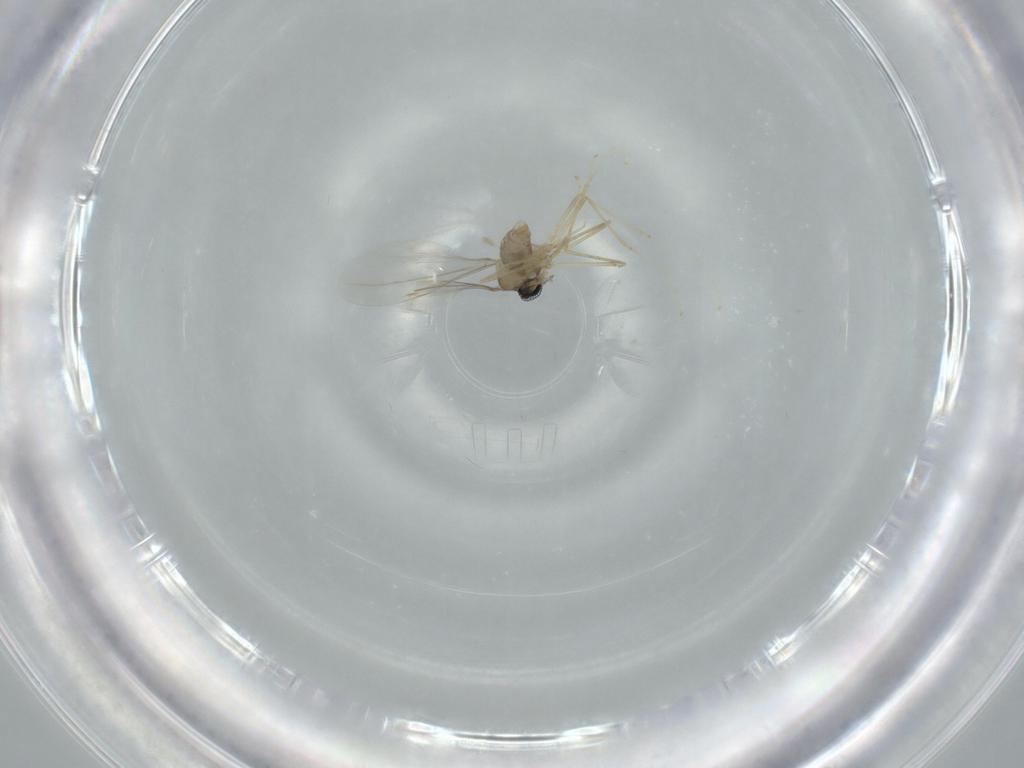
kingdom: Animalia
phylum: Arthropoda
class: Insecta
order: Diptera
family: Cecidomyiidae
